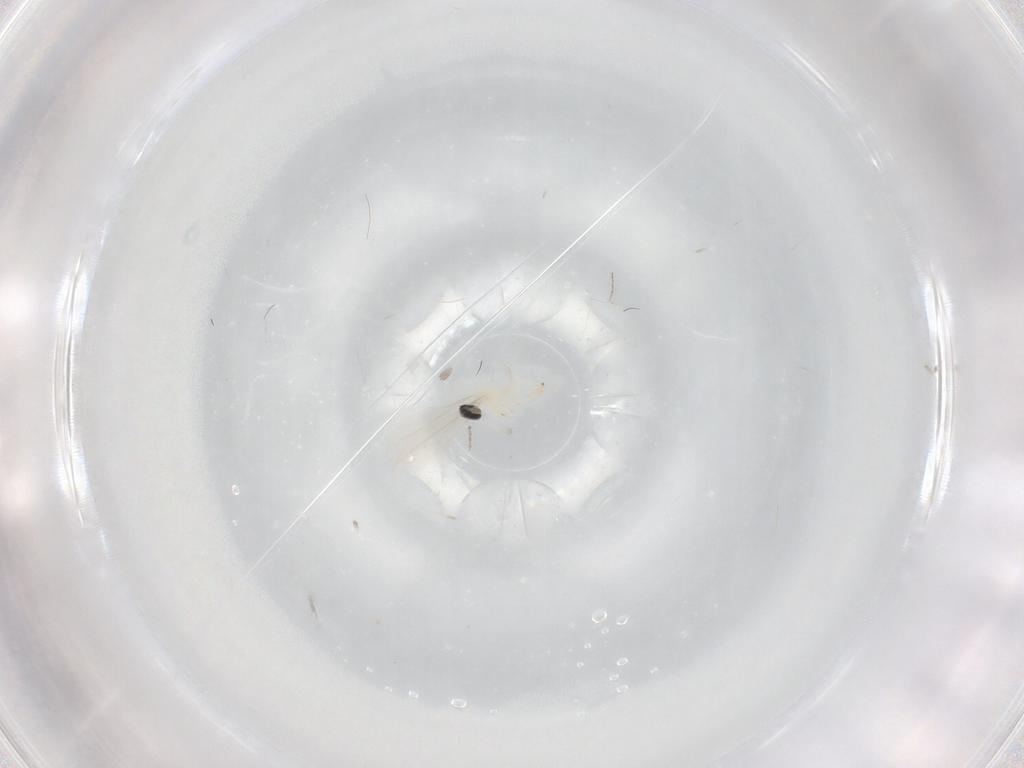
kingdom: Animalia
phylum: Arthropoda
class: Insecta
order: Diptera
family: Cecidomyiidae
